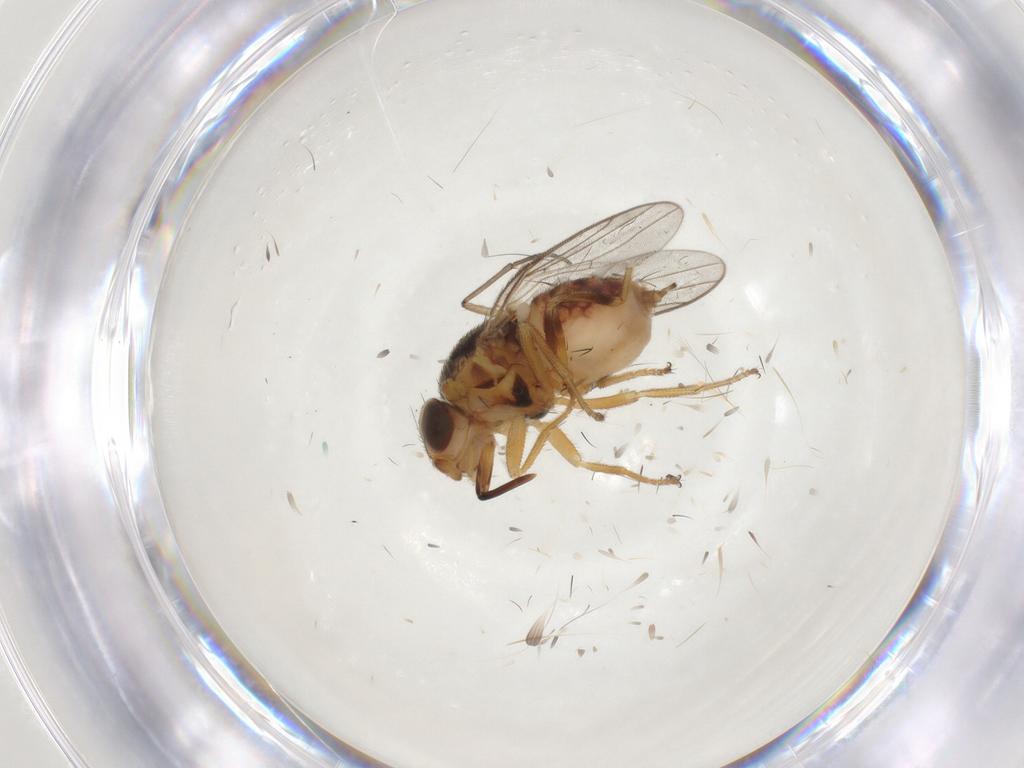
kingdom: Animalia
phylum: Arthropoda
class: Insecta
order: Diptera
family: Chloropidae
